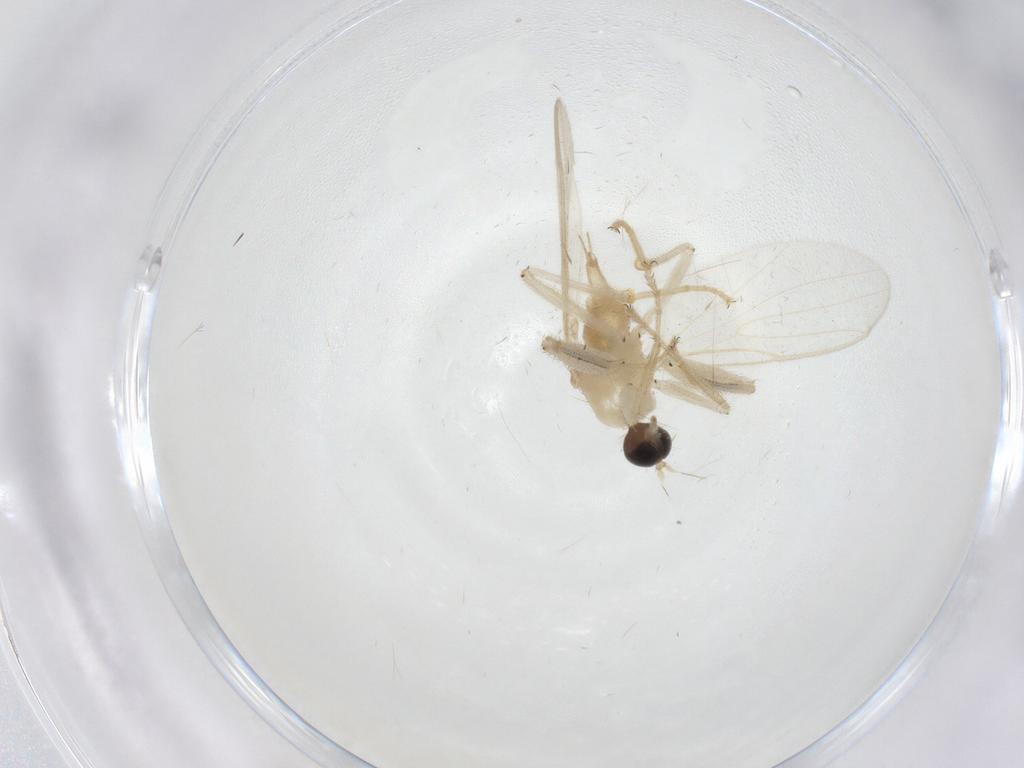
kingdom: Animalia
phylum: Arthropoda
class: Insecta
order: Diptera
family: Hybotidae
